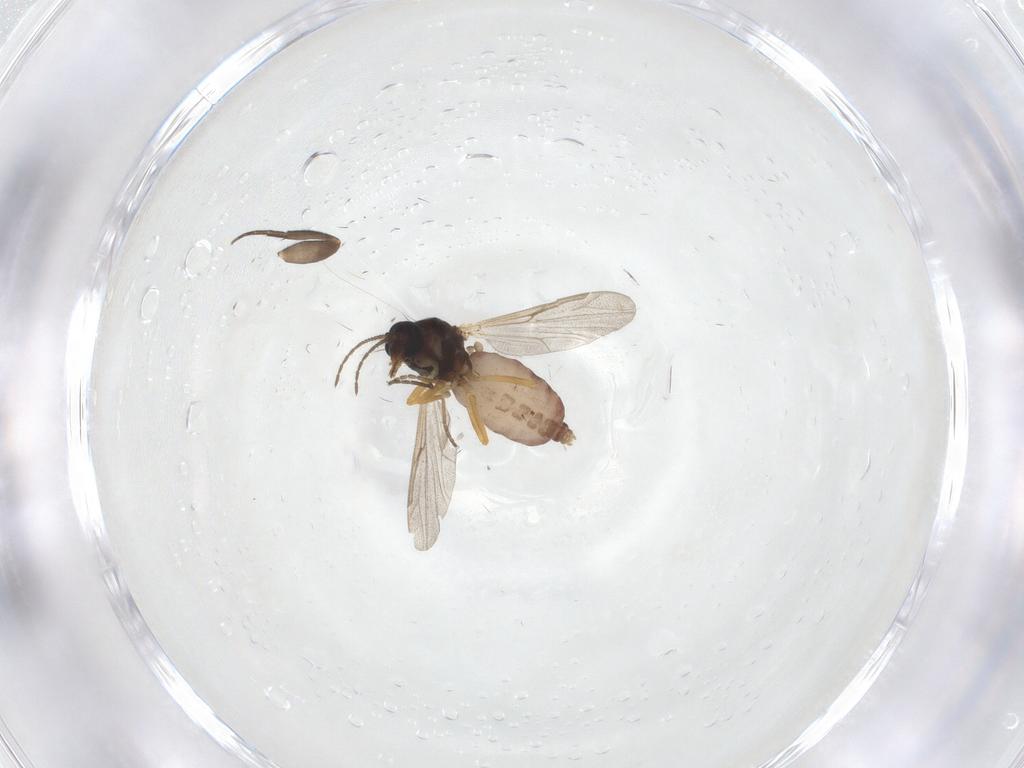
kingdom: Animalia
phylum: Arthropoda
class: Insecta
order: Diptera
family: Ceratopogonidae
